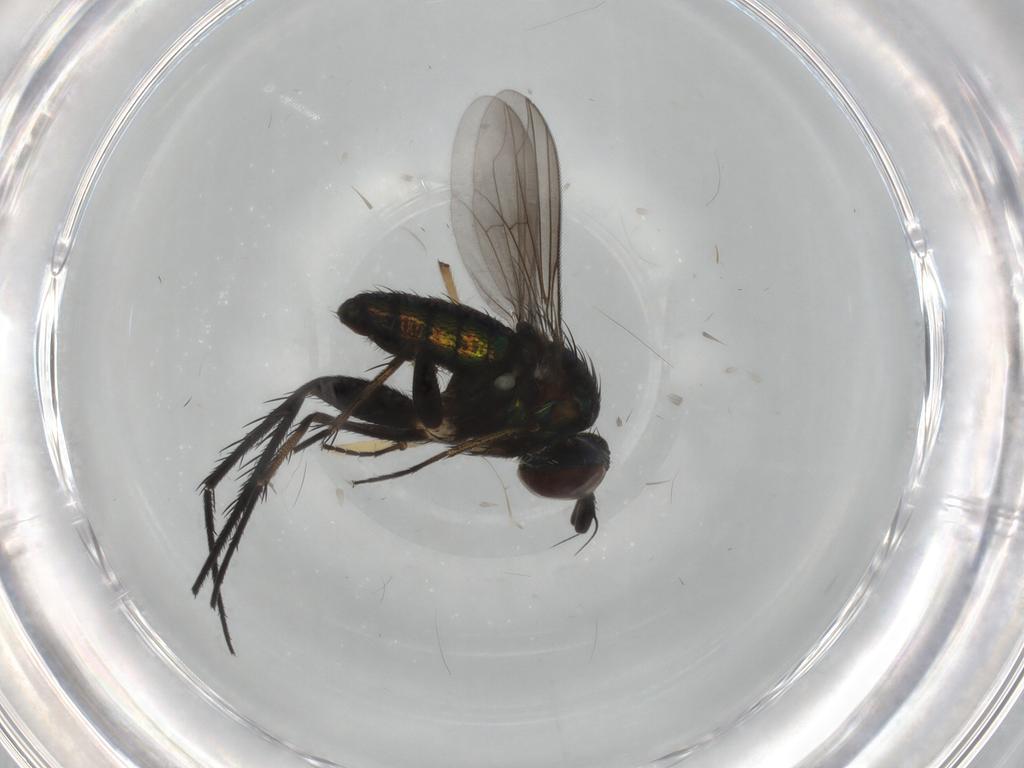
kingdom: Animalia
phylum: Arthropoda
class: Insecta
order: Diptera
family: Dolichopodidae
